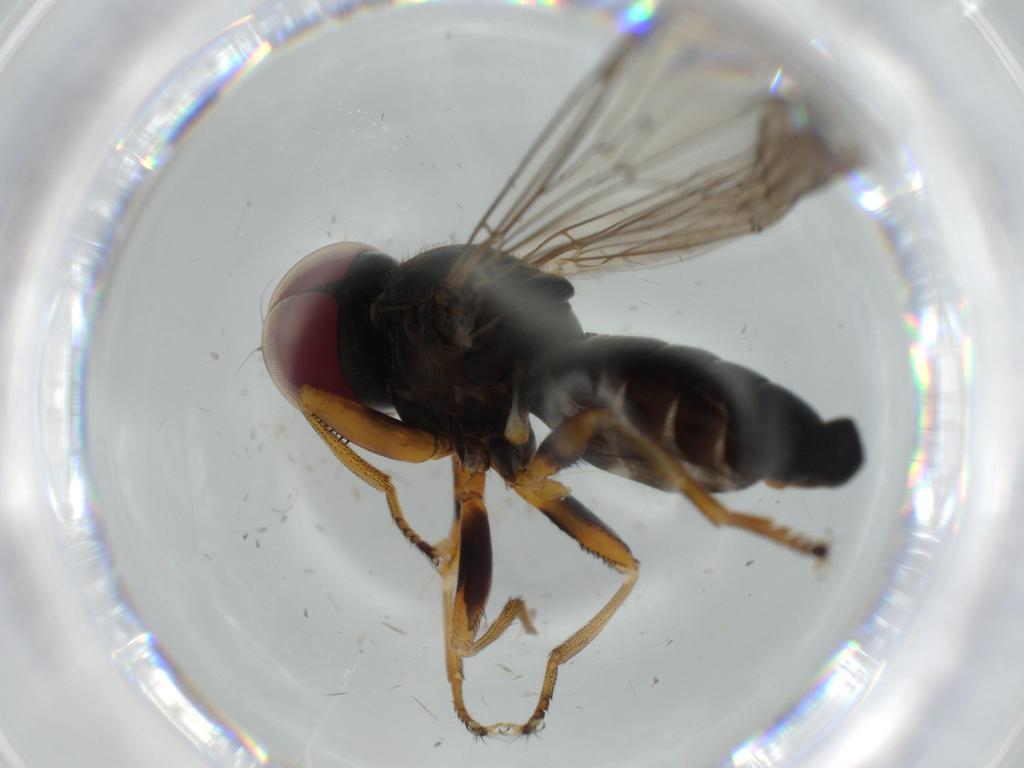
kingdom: Animalia
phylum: Arthropoda
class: Insecta
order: Diptera
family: Pipunculidae
